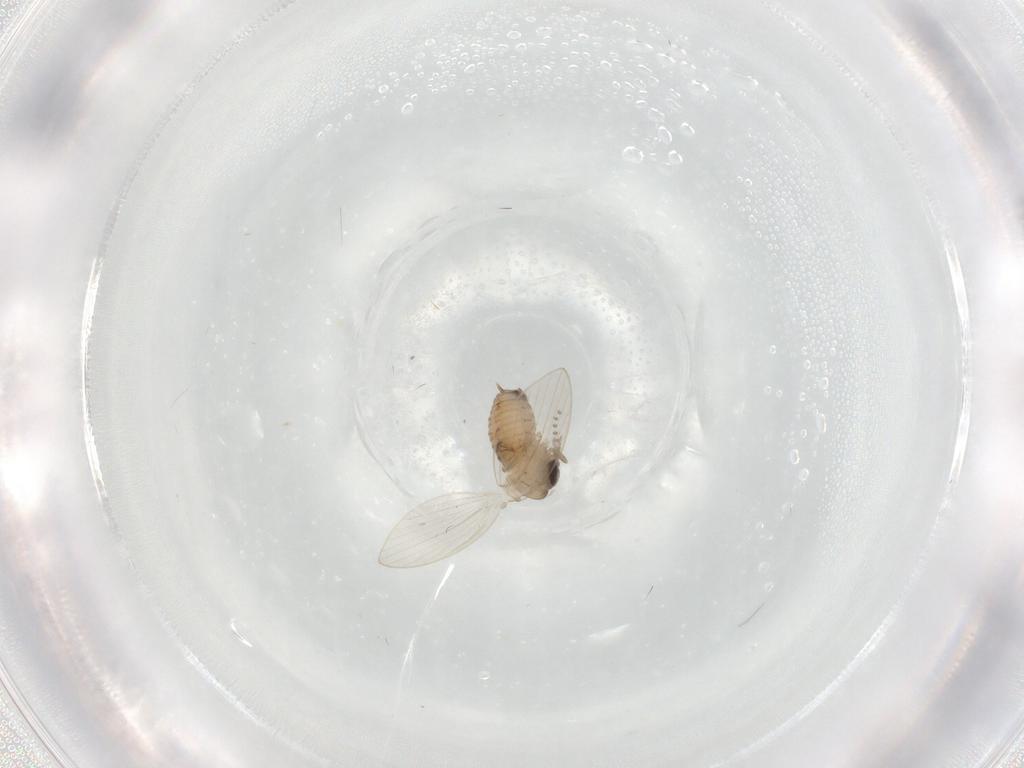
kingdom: Animalia
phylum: Arthropoda
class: Insecta
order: Diptera
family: Psychodidae
